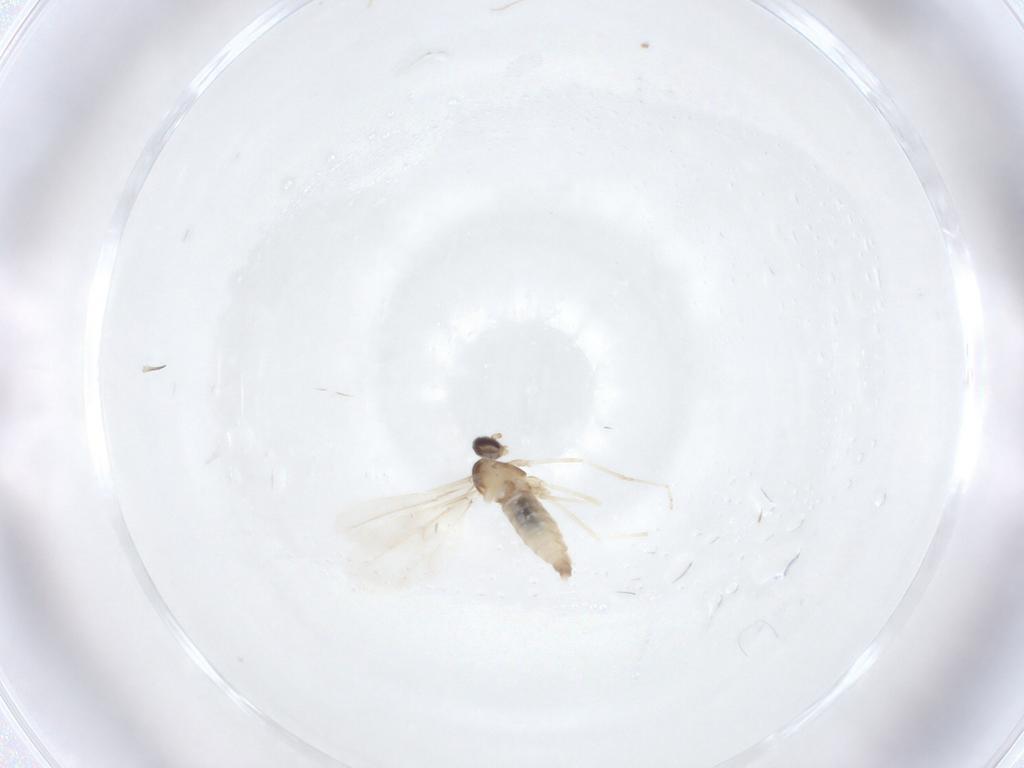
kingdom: Animalia
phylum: Arthropoda
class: Insecta
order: Diptera
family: Cecidomyiidae
